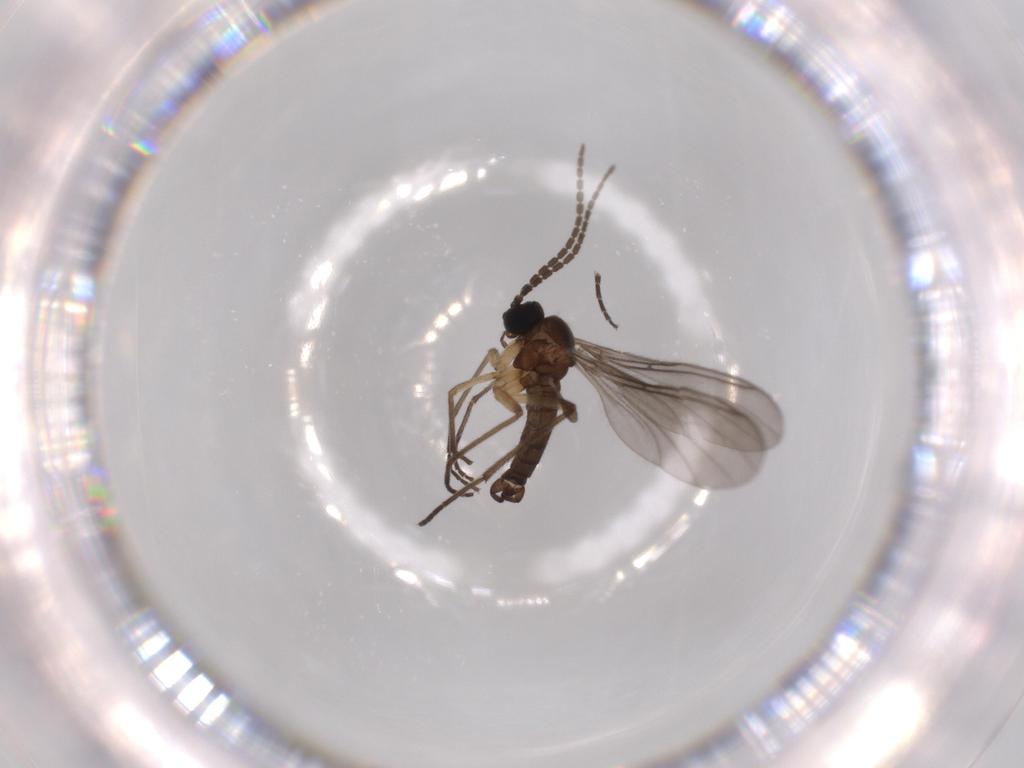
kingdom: Animalia
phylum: Arthropoda
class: Insecta
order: Diptera
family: Sciaridae
